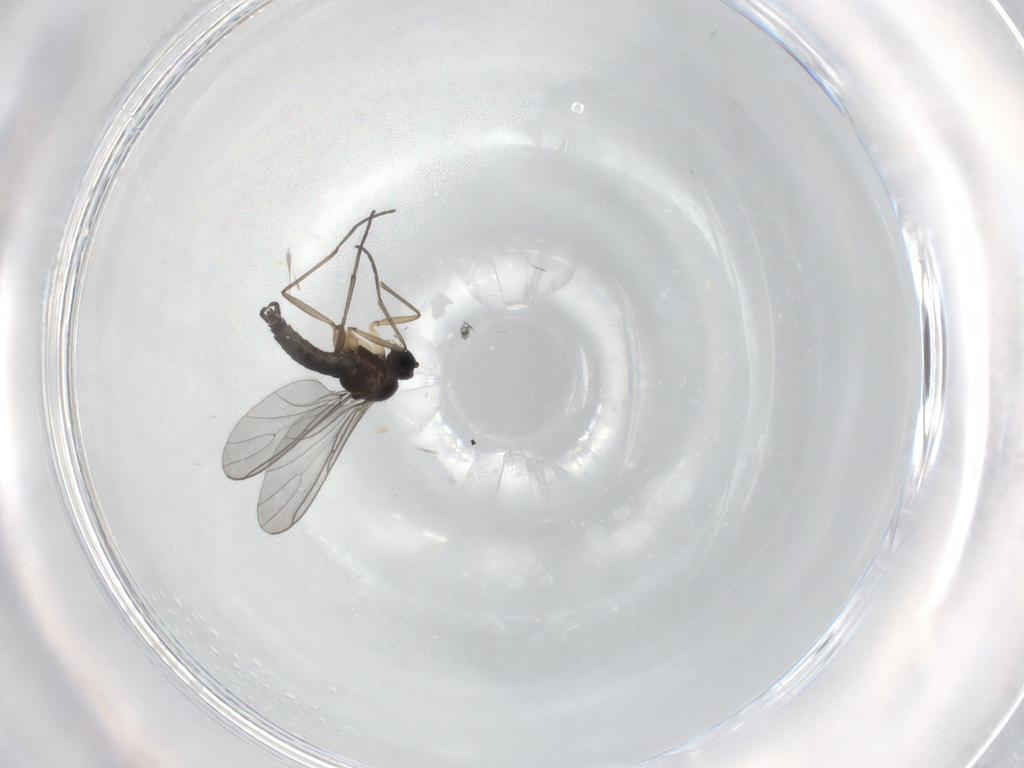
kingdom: Animalia
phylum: Arthropoda
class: Insecta
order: Diptera
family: Sciaridae
